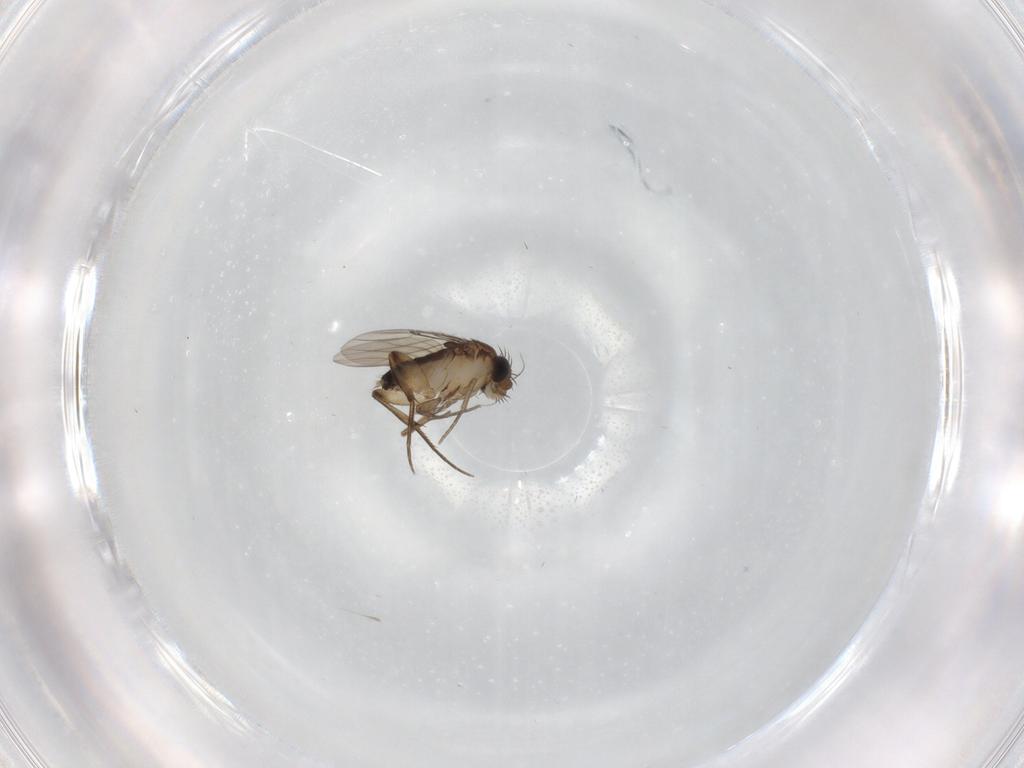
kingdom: Animalia
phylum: Arthropoda
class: Insecta
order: Diptera
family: Phoridae
